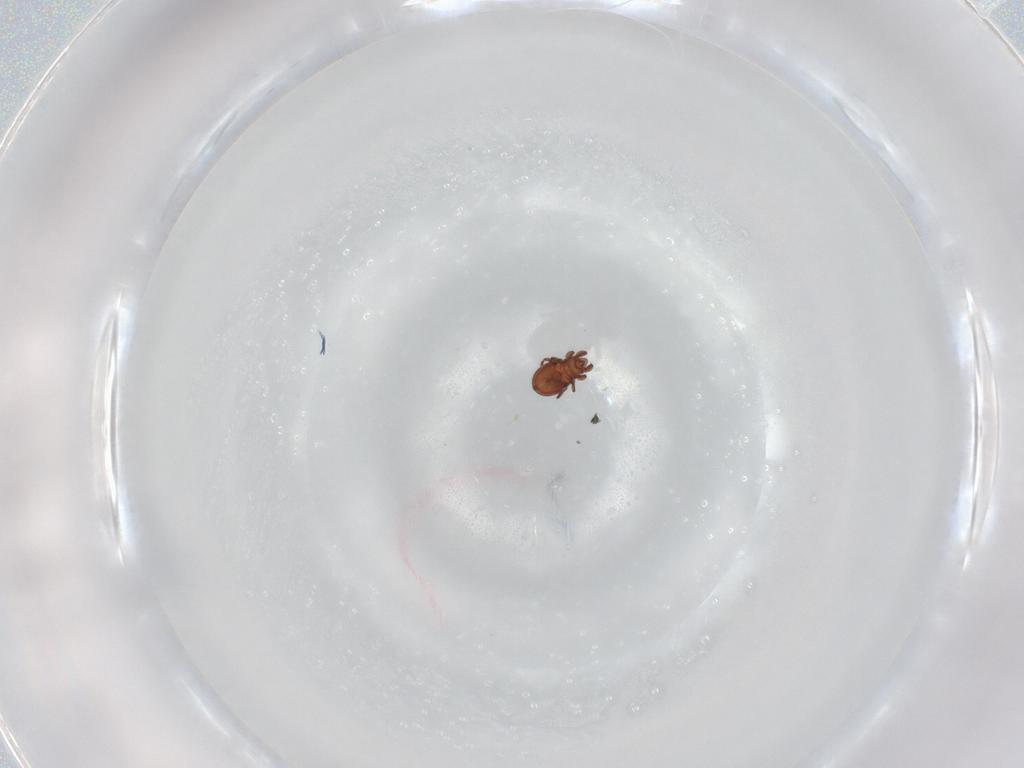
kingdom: Animalia
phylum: Arthropoda
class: Arachnida
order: Sarcoptiformes
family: Eremaeidae
